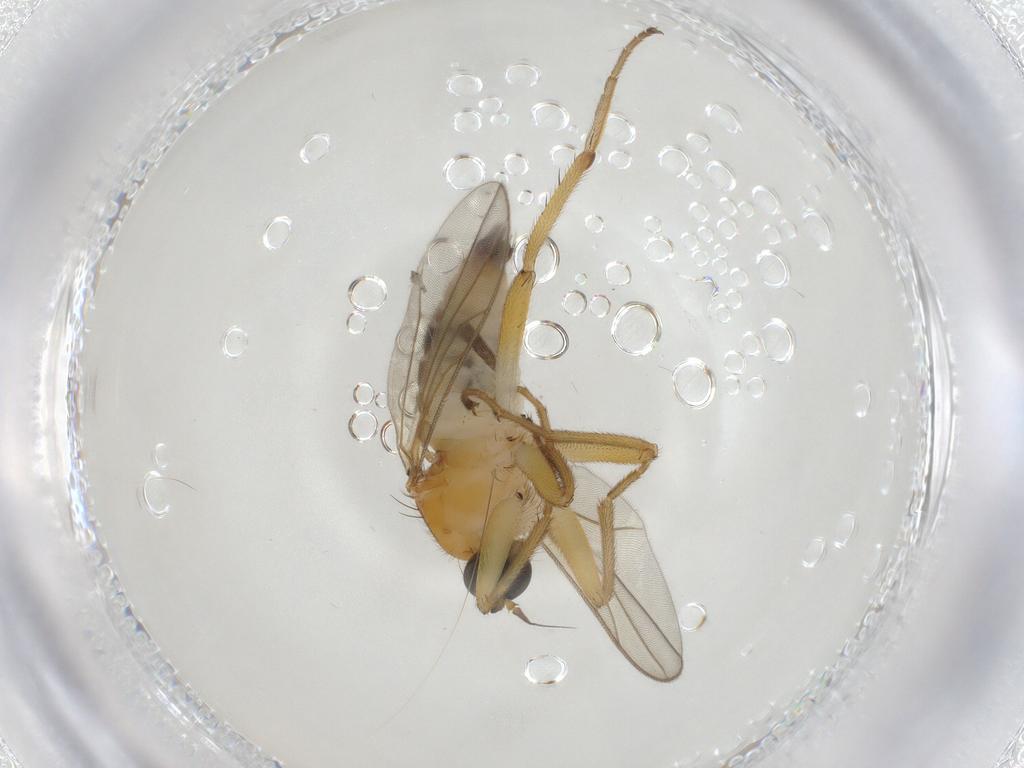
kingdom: Animalia
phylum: Arthropoda
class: Insecta
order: Diptera
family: Hybotidae
